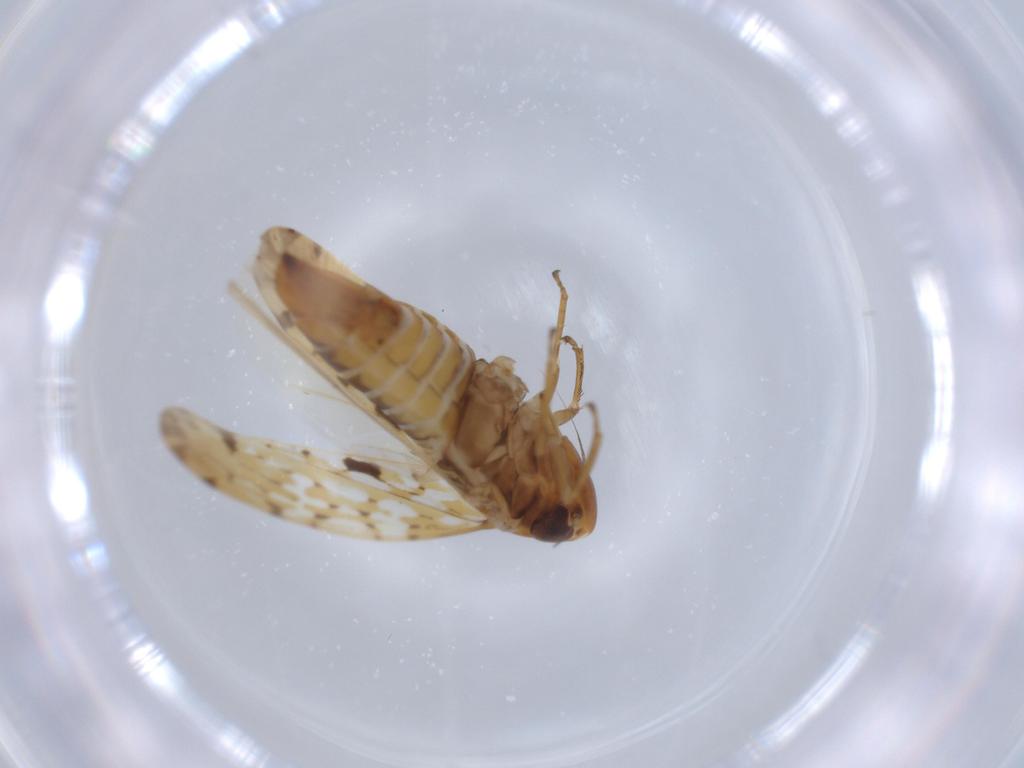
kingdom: Animalia
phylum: Arthropoda
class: Insecta
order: Hemiptera
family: Cicadellidae
